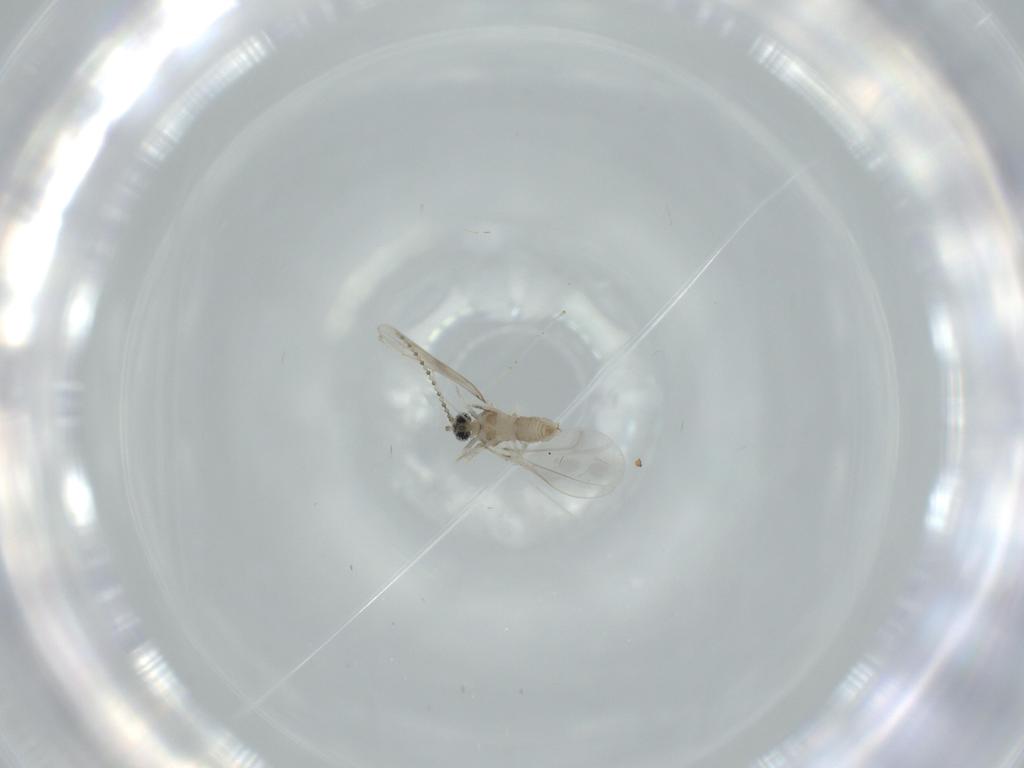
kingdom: Animalia
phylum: Arthropoda
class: Insecta
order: Diptera
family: Cecidomyiidae
